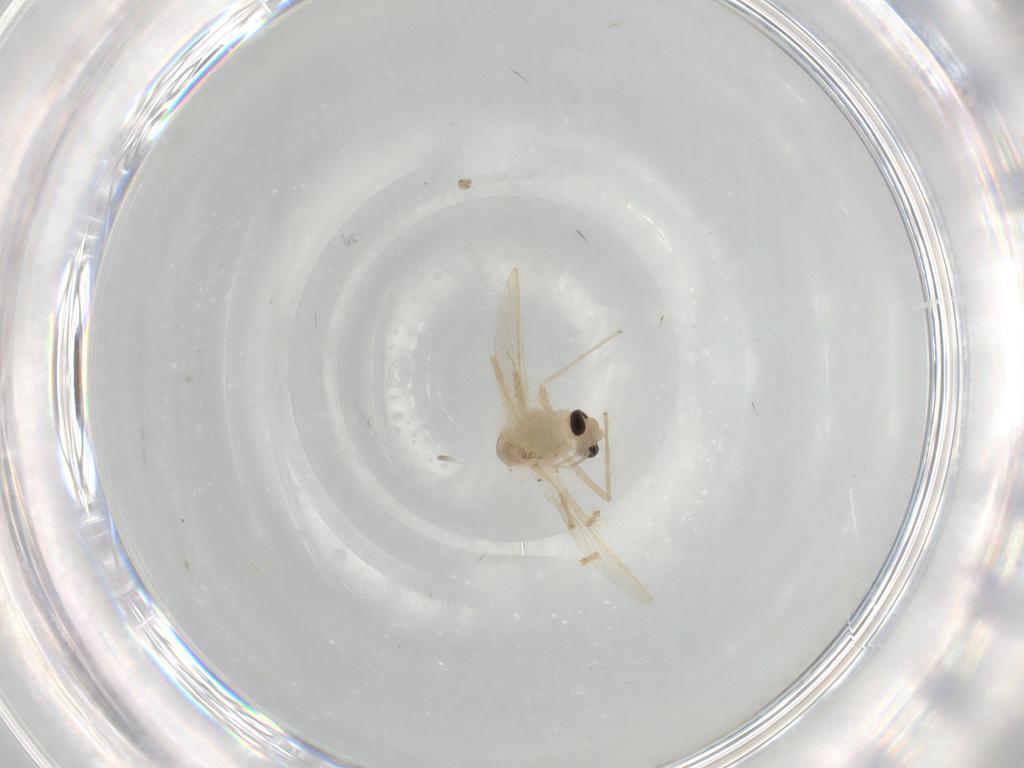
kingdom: Animalia
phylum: Arthropoda
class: Insecta
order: Diptera
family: Chironomidae
